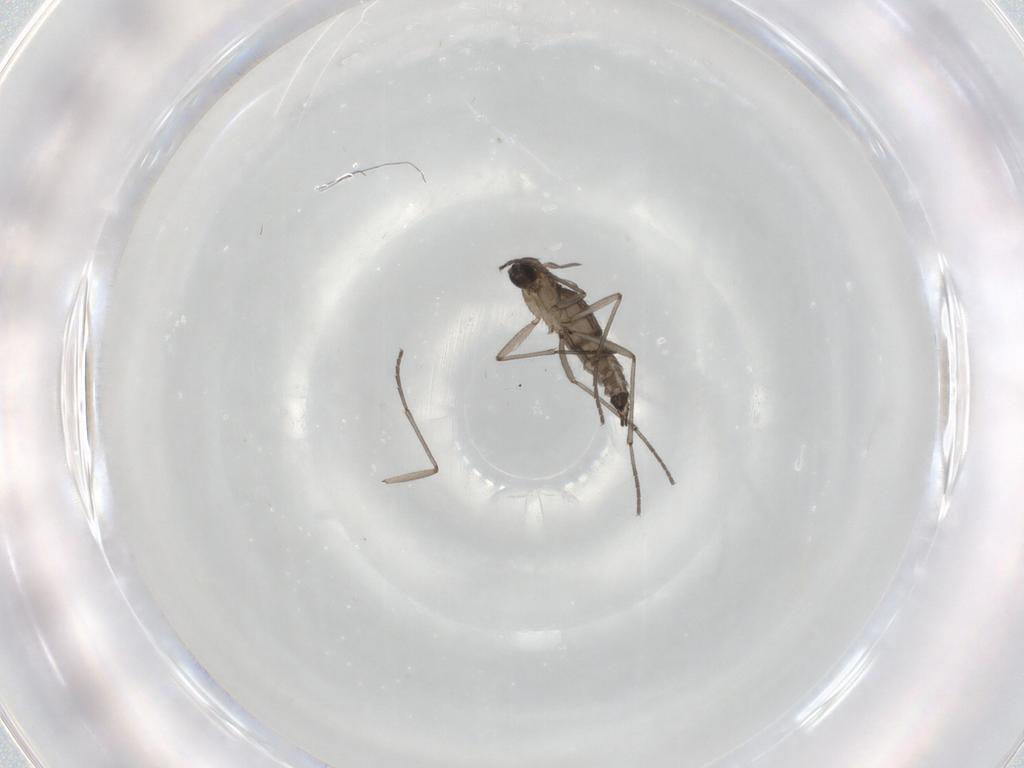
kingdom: Animalia
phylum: Arthropoda
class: Insecta
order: Diptera
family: Sciaridae
